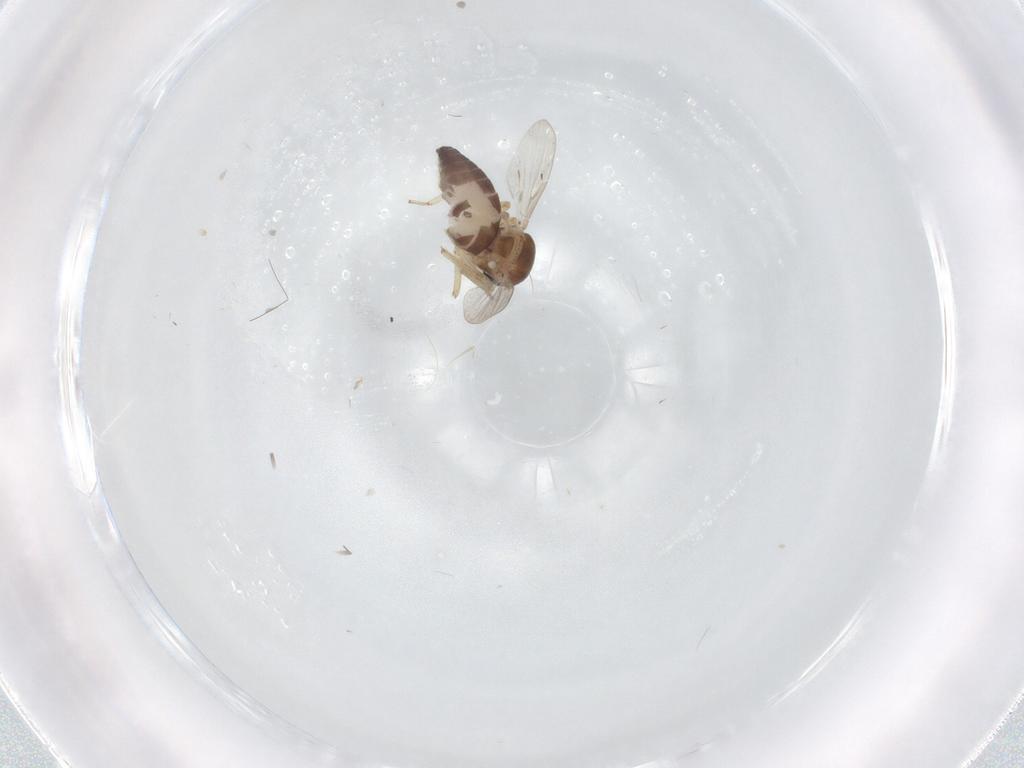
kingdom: Animalia
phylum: Arthropoda
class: Insecta
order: Diptera
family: Ceratopogonidae
